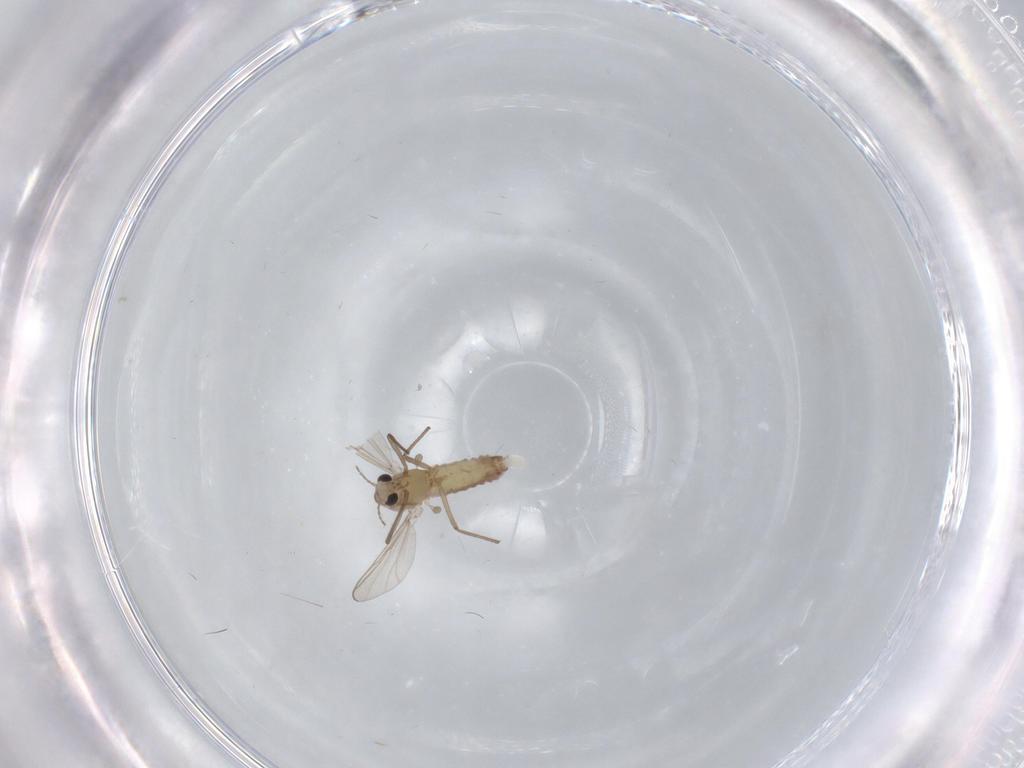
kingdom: Animalia
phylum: Arthropoda
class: Insecta
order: Diptera
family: Chironomidae
